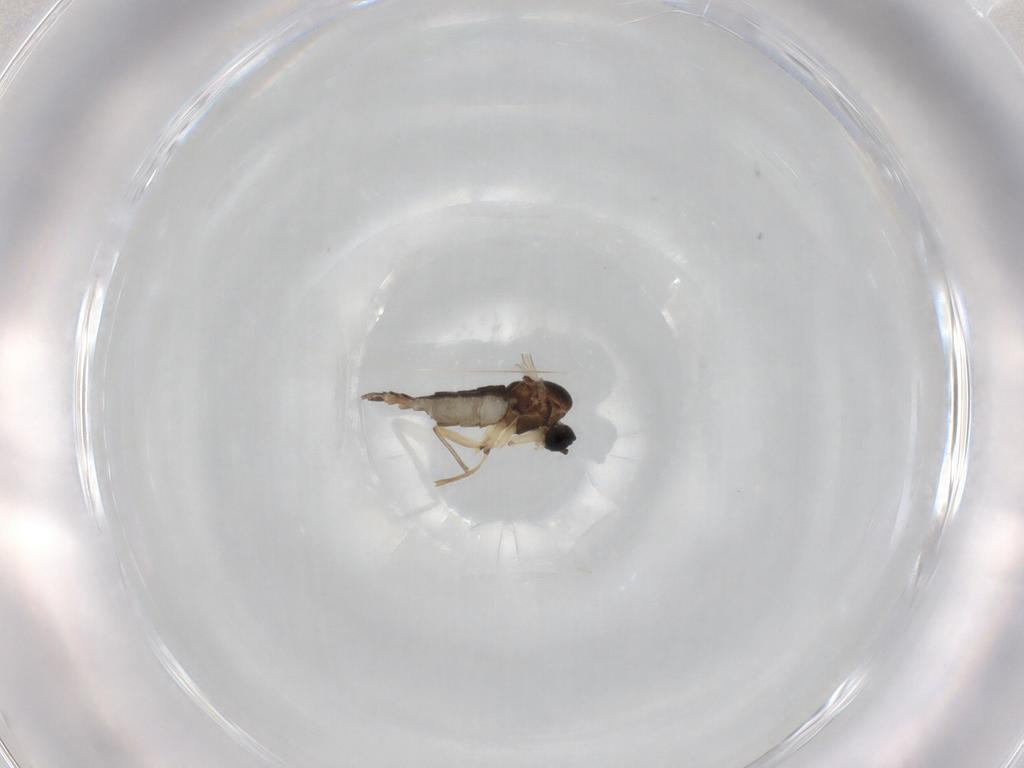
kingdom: Animalia
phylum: Arthropoda
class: Insecta
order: Diptera
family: Sciaridae
